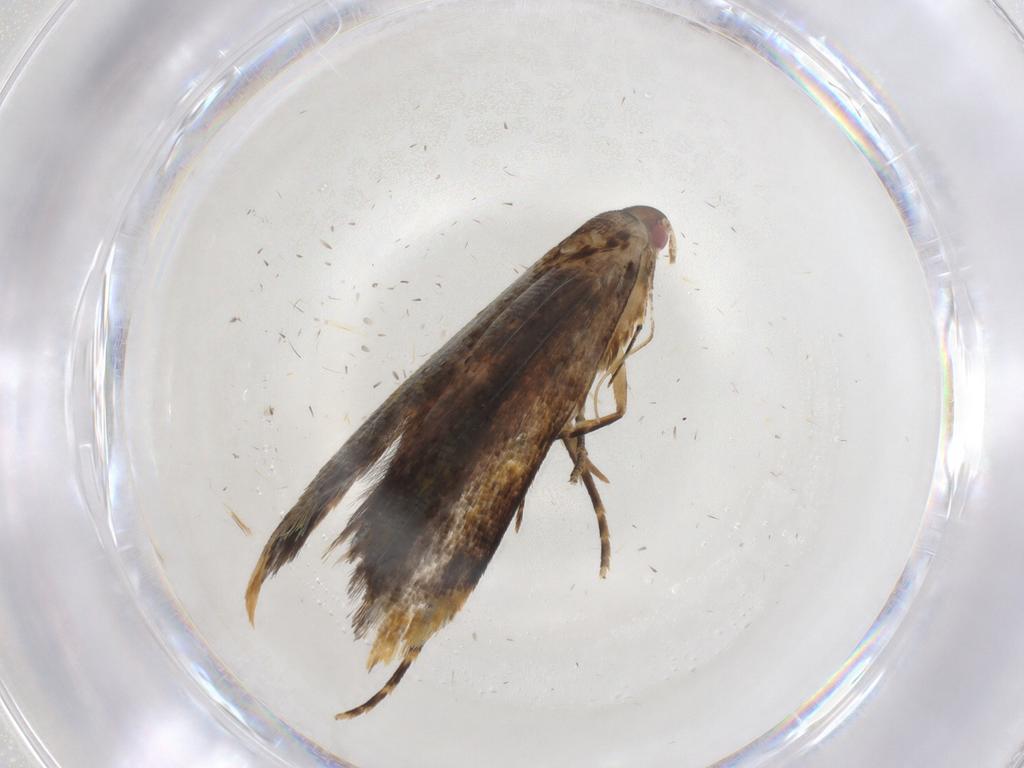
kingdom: Animalia
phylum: Arthropoda
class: Insecta
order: Lepidoptera
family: Gelechiidae
